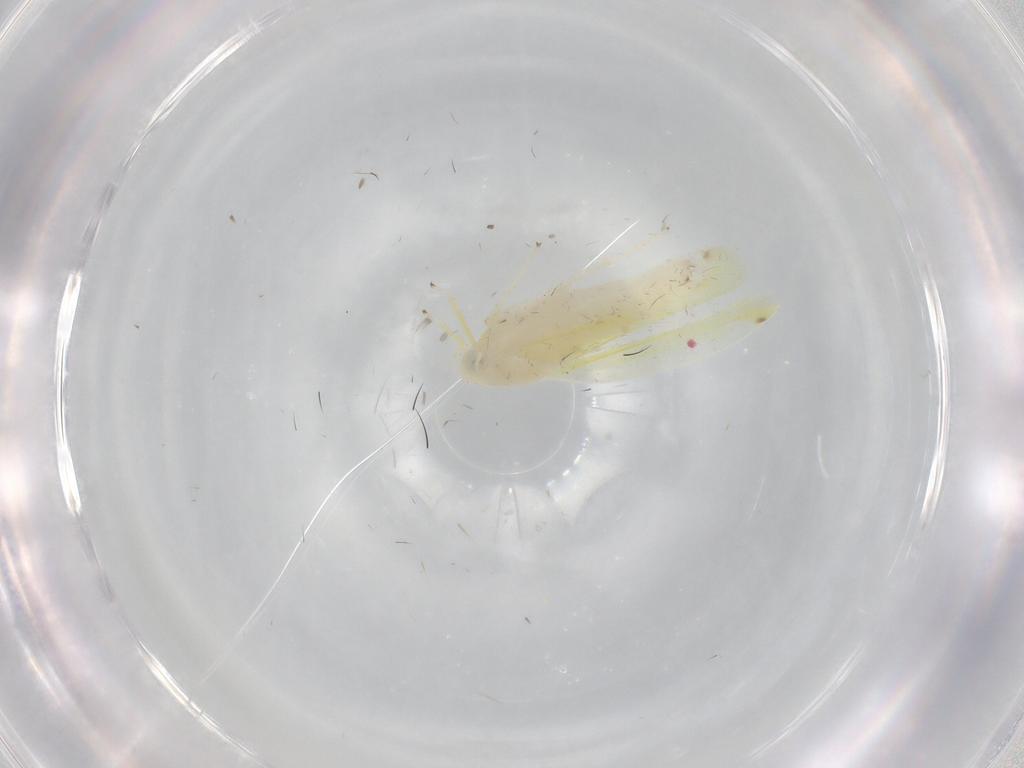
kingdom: Animalia
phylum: Arthropoda
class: Insecta
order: Hemiptera
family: Cicadellidae
